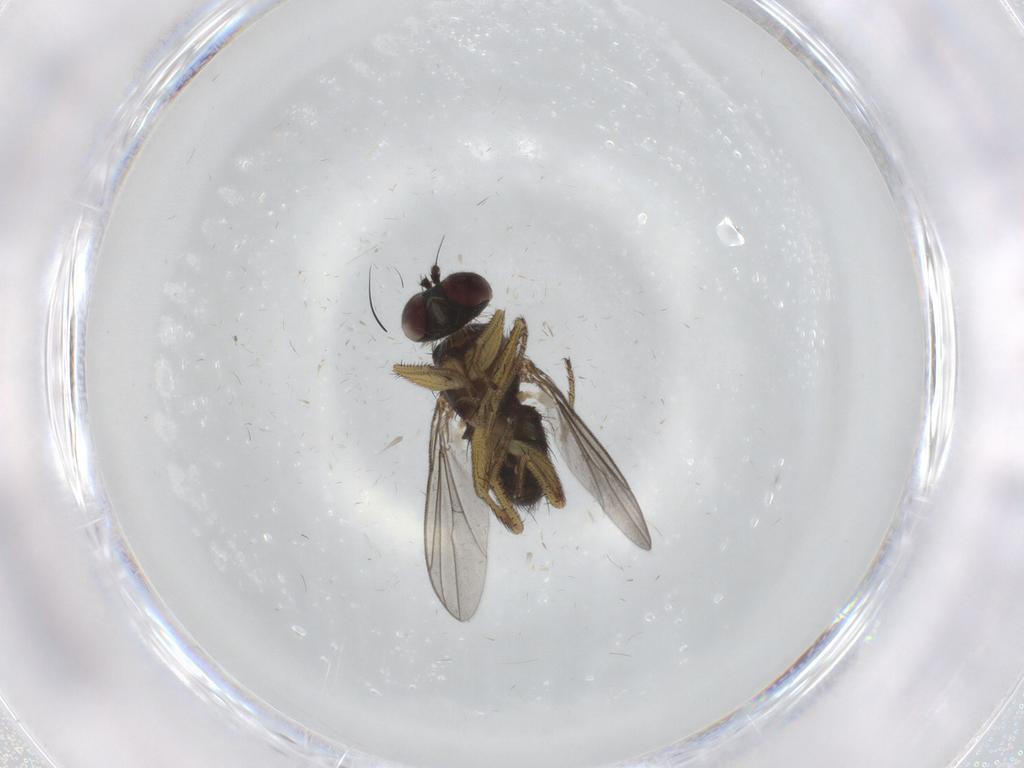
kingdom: Animalia
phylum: Arthropoda
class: Insecta
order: Diptera
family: Dolichopodidae
